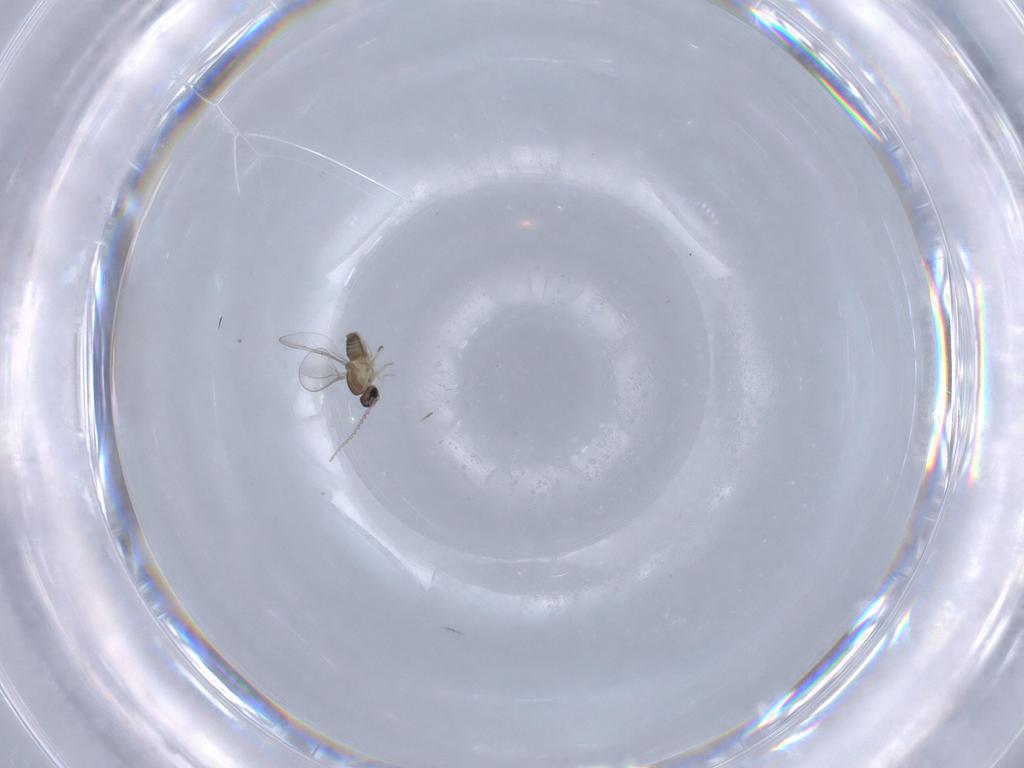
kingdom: Animalia
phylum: Arthropoda
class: Insecta
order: Diptera
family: Cecidomyiidae
